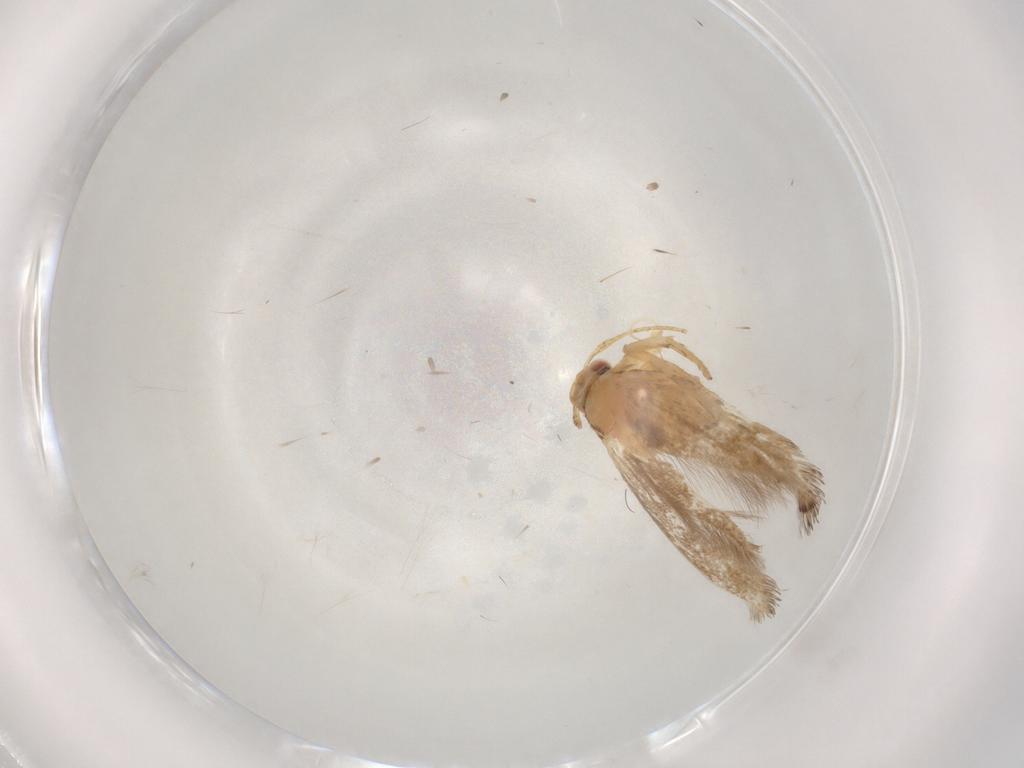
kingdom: Animalia
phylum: Arthropoda
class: Insecta
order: Lepidoptera
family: Cosmopterigidae
